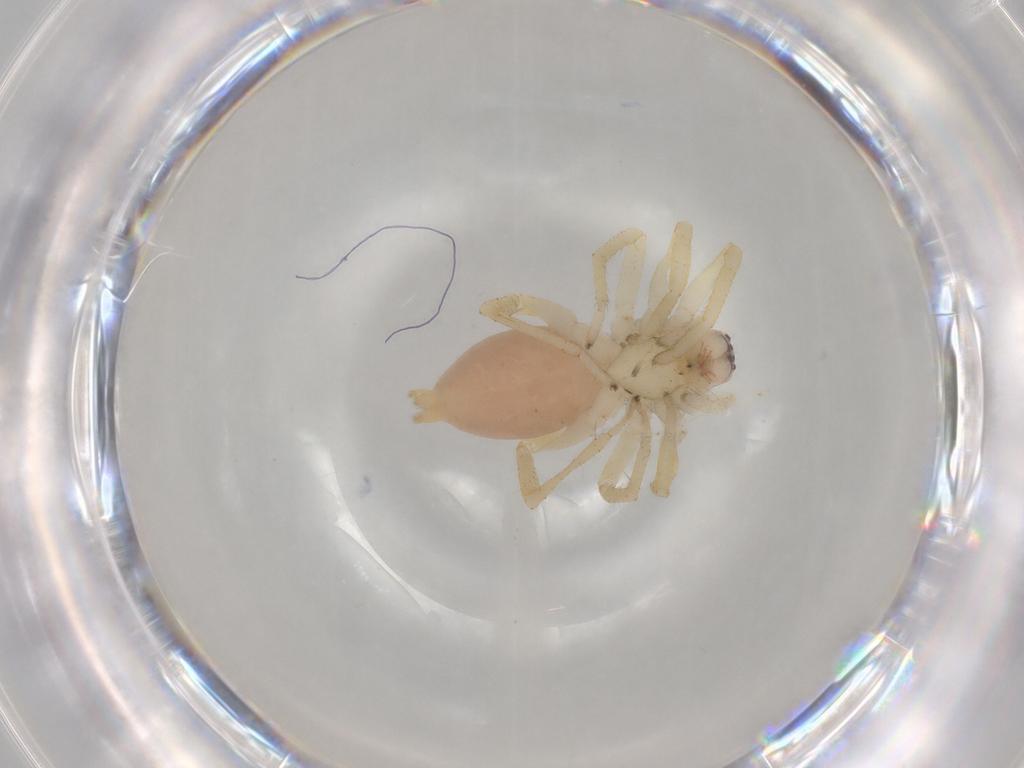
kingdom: Animalia
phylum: Arthropoda
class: Arachnida
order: Araneae
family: Clubionidae
